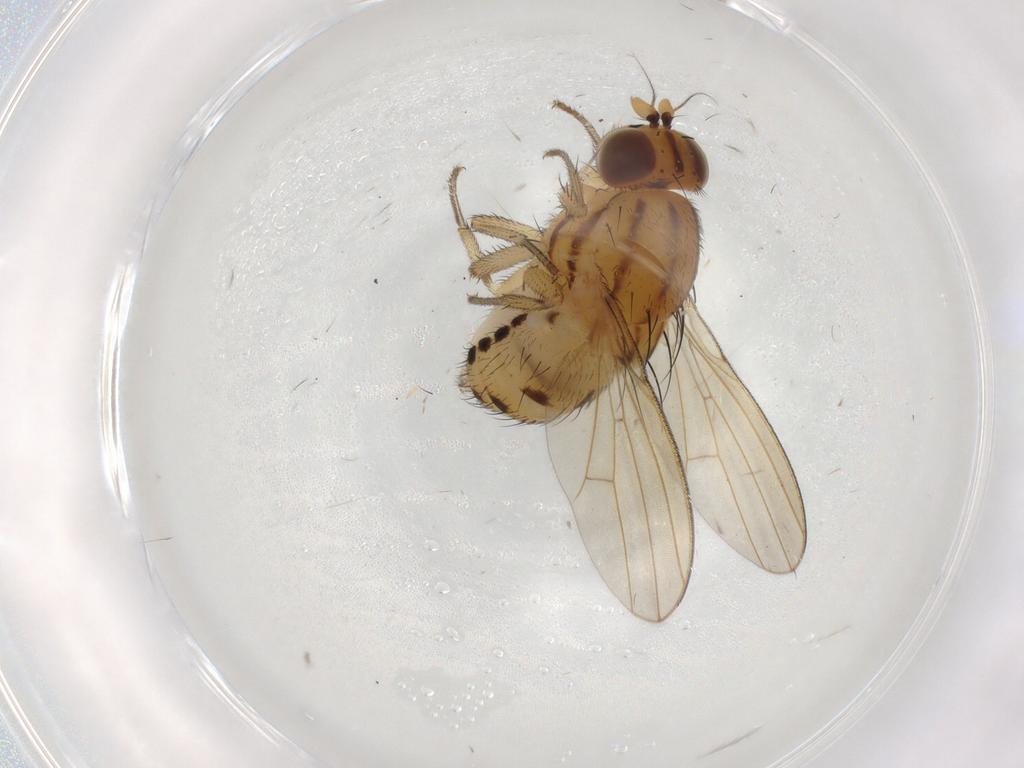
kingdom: Animalia
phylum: Arthropoda
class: Insecta
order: Diptera
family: Lauxaniidae
